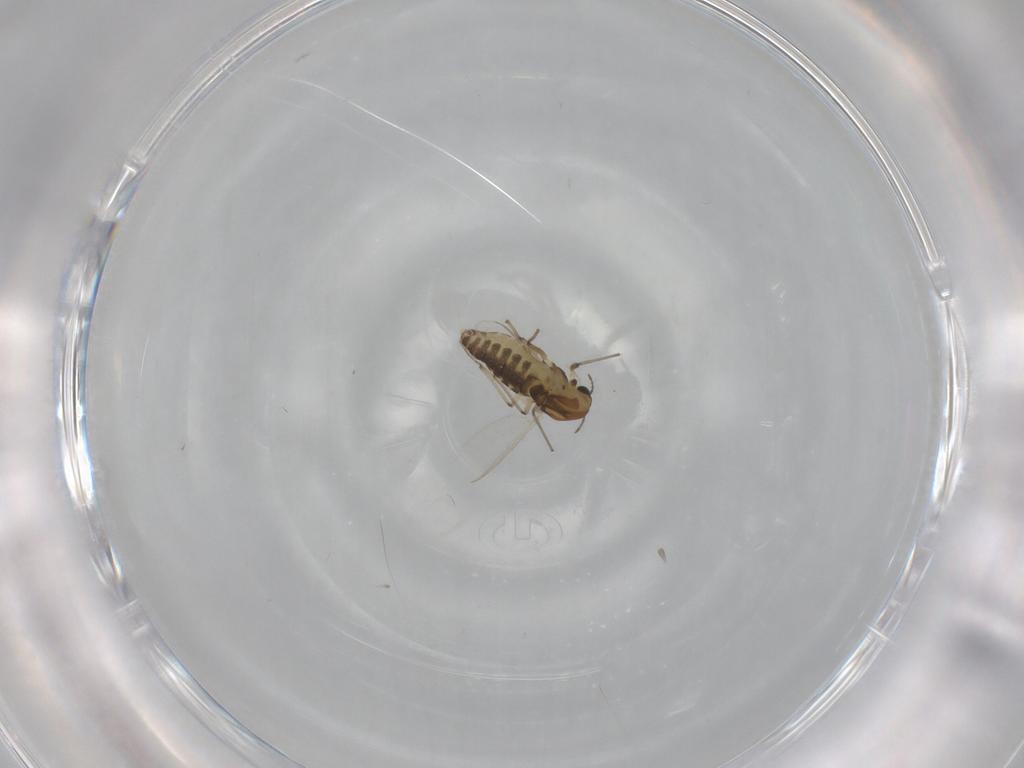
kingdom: Animalia
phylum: Arthropoda
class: Insecta
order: Diptera
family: Chironomidae
